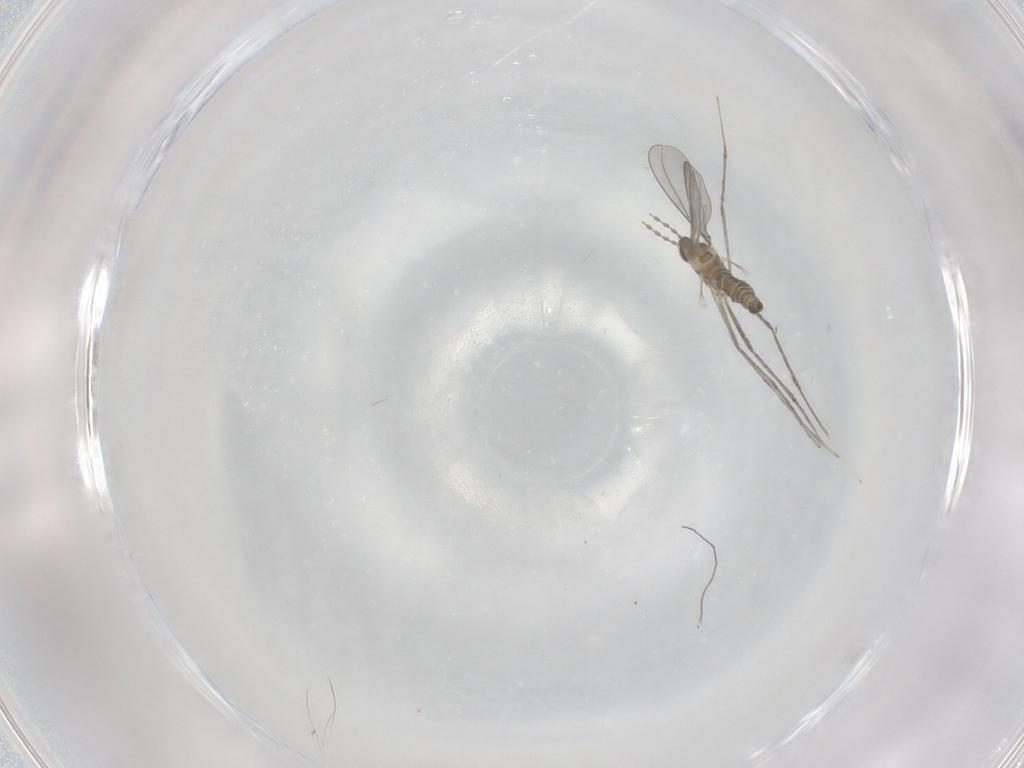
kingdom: Animalia
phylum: Arthropoda
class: Insecta
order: Diptera
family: Cecidomyiidae
